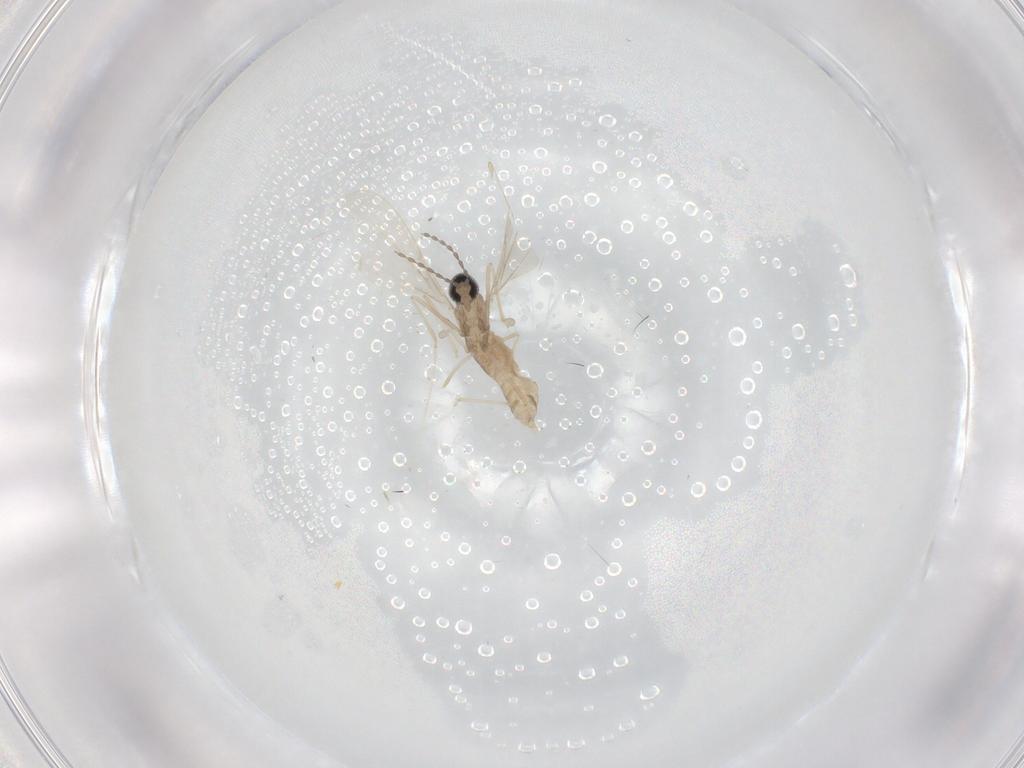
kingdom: Animalia
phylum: Arthropoda
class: Insecta
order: Diptera
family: Cecidomyiidae
